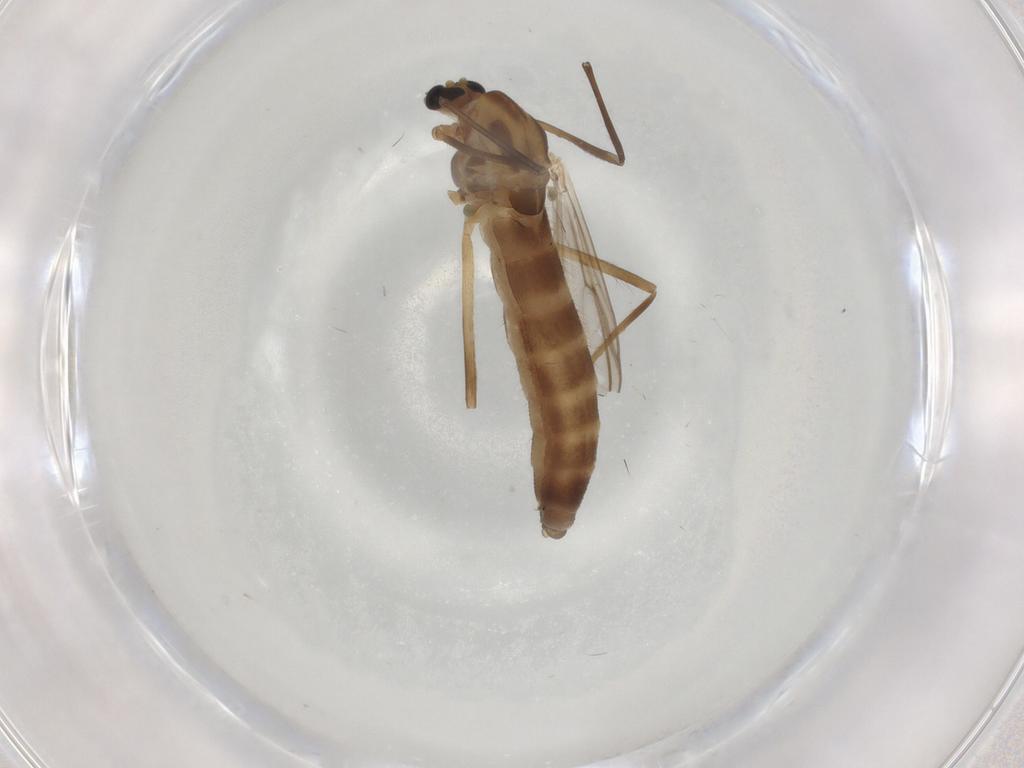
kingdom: Animalia
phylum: Arthropoda
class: Insecta
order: Diptera
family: Chironomidae
